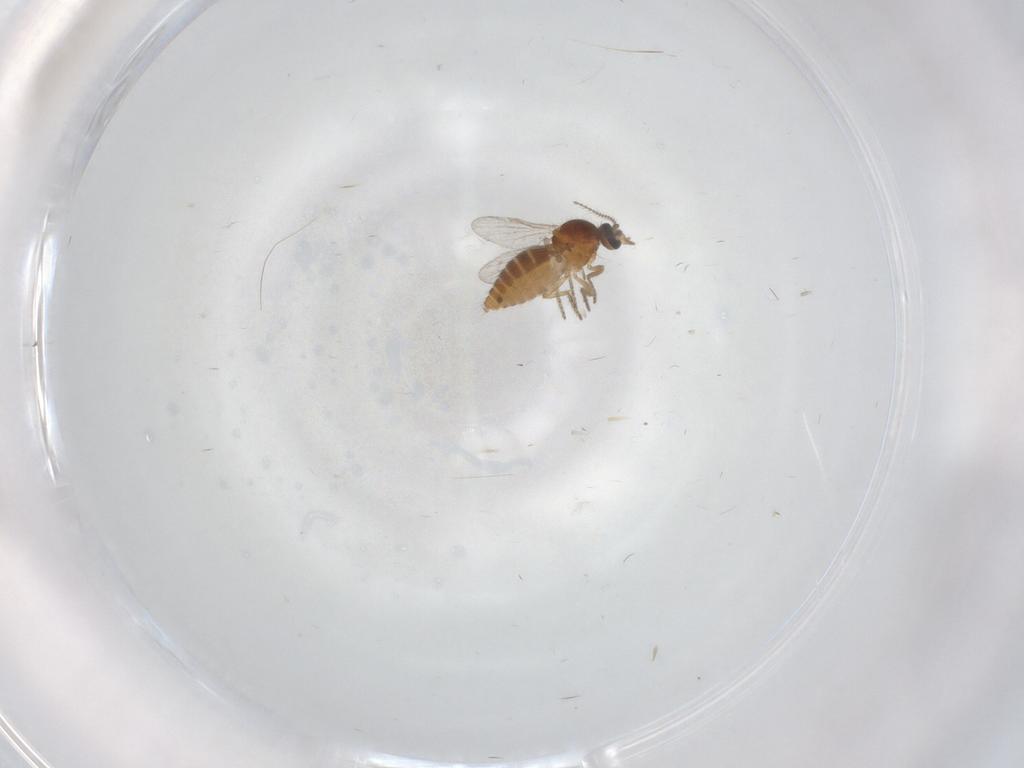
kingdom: Animalia
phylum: Arthropoda
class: Insecta
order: Diptera
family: Ceratopogonidae
